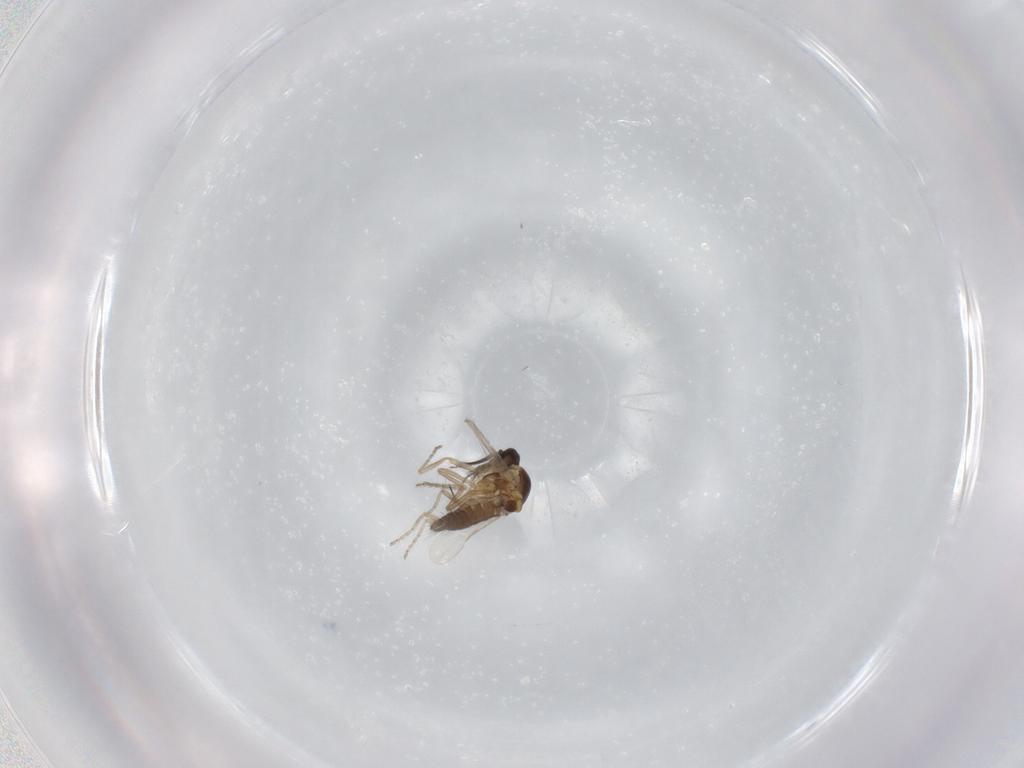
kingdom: Animalia
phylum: Arthropoda
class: Insecta
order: Diptera
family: Ceratopogonidae
